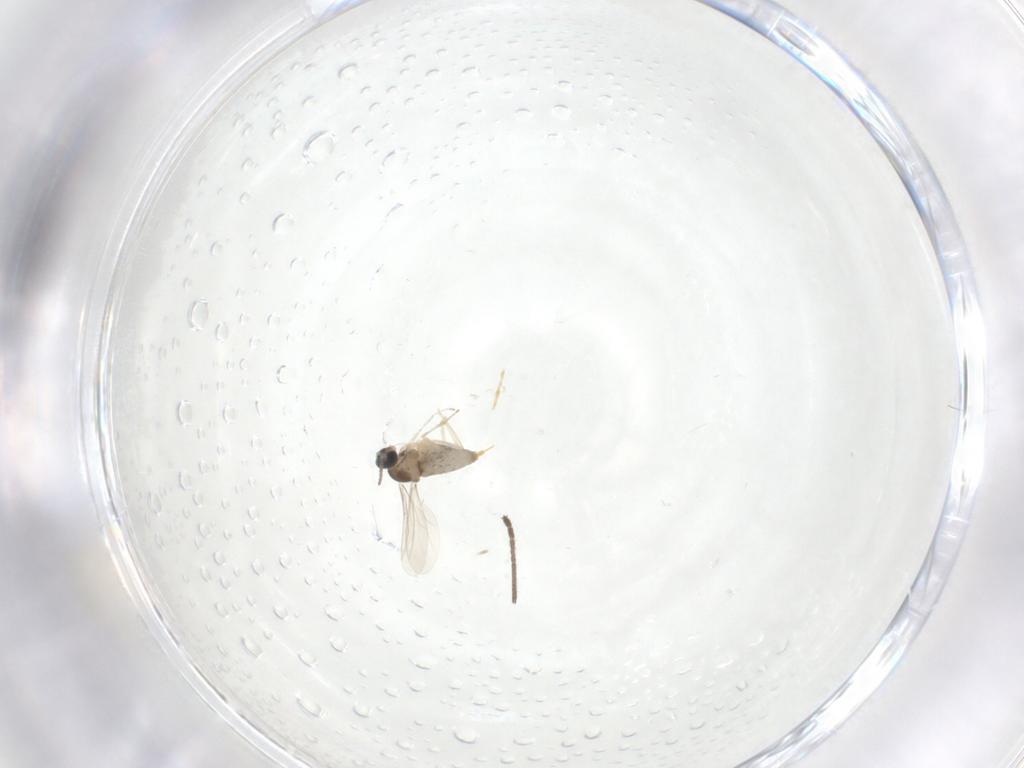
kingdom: Animalia
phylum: Arthropoda
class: Insecta
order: Diptera
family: Cecidomyiidae
